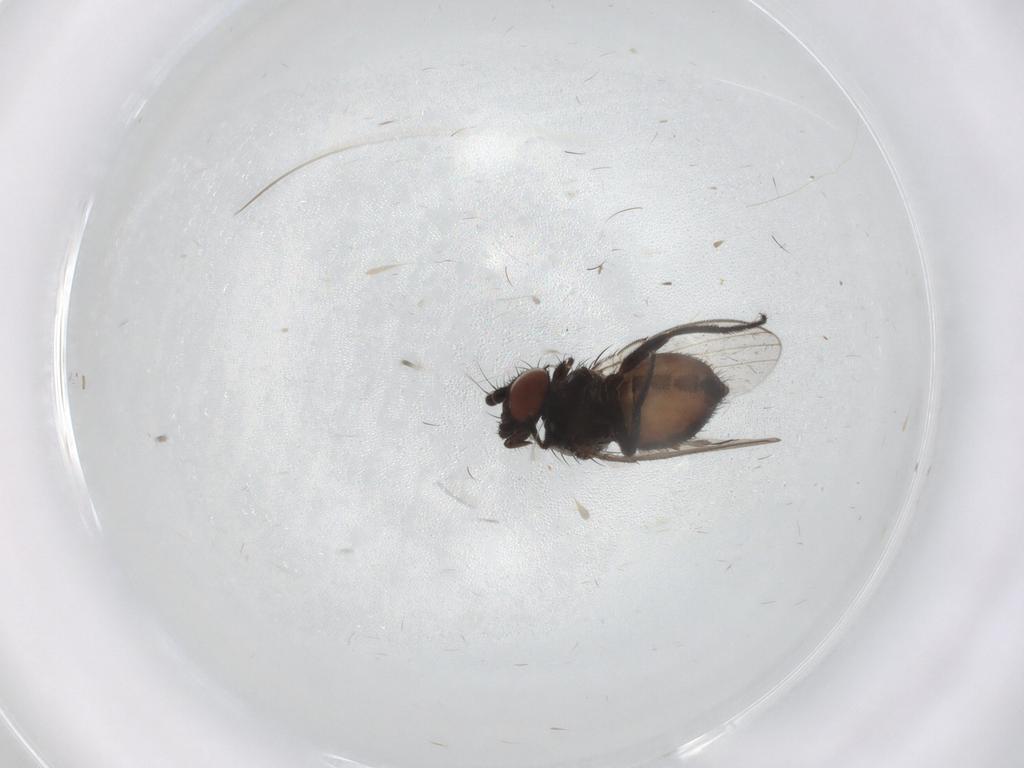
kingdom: Animalia
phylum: Arthropoda
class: Insecta
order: Diptera
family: Milichiidae
